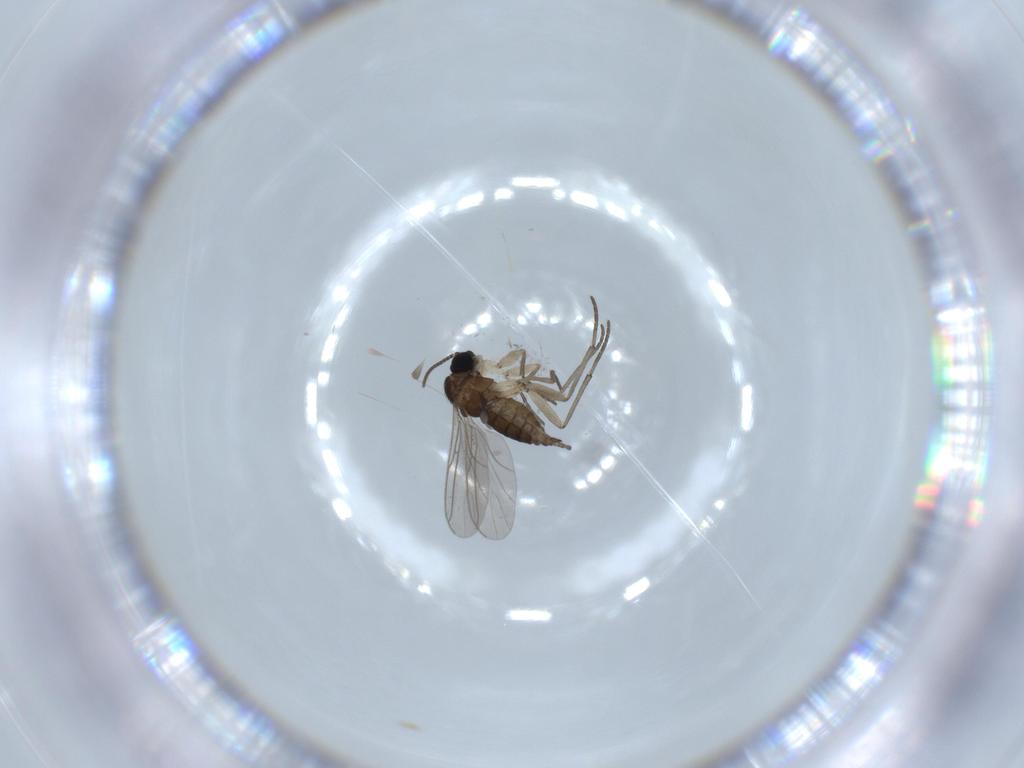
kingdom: Animalia
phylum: Arthropoda
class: Insecta
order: Diptera
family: Sciaridae
